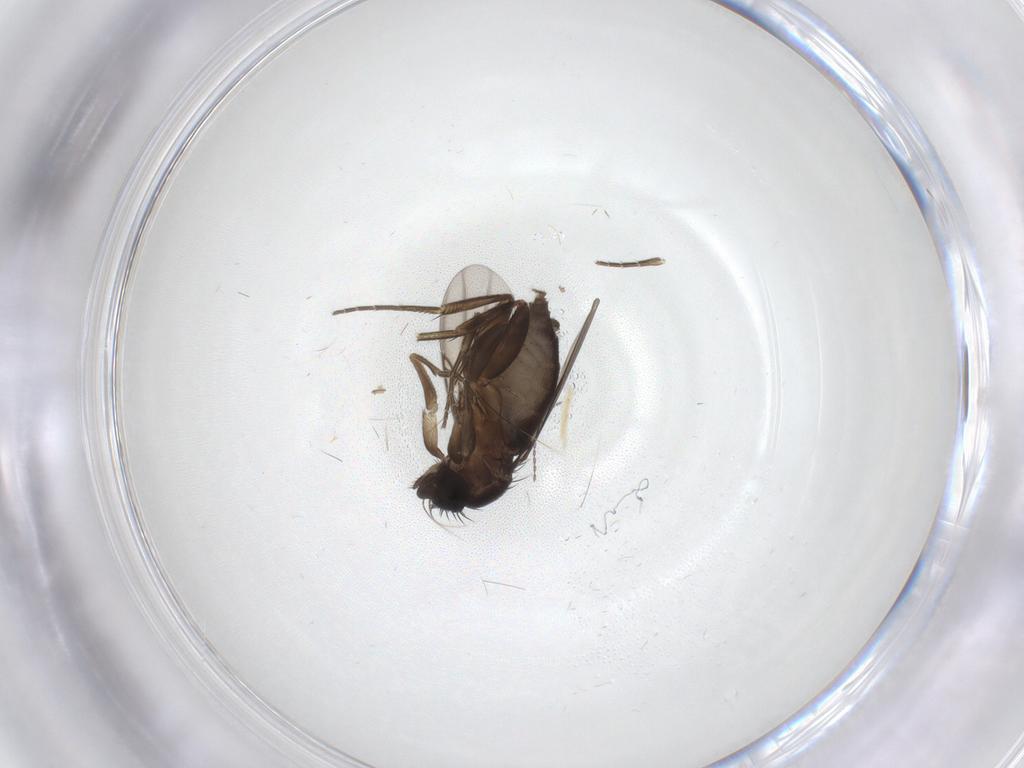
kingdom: Animalia
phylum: Arthropoda
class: Insecta
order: Diptera
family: Phoridae
